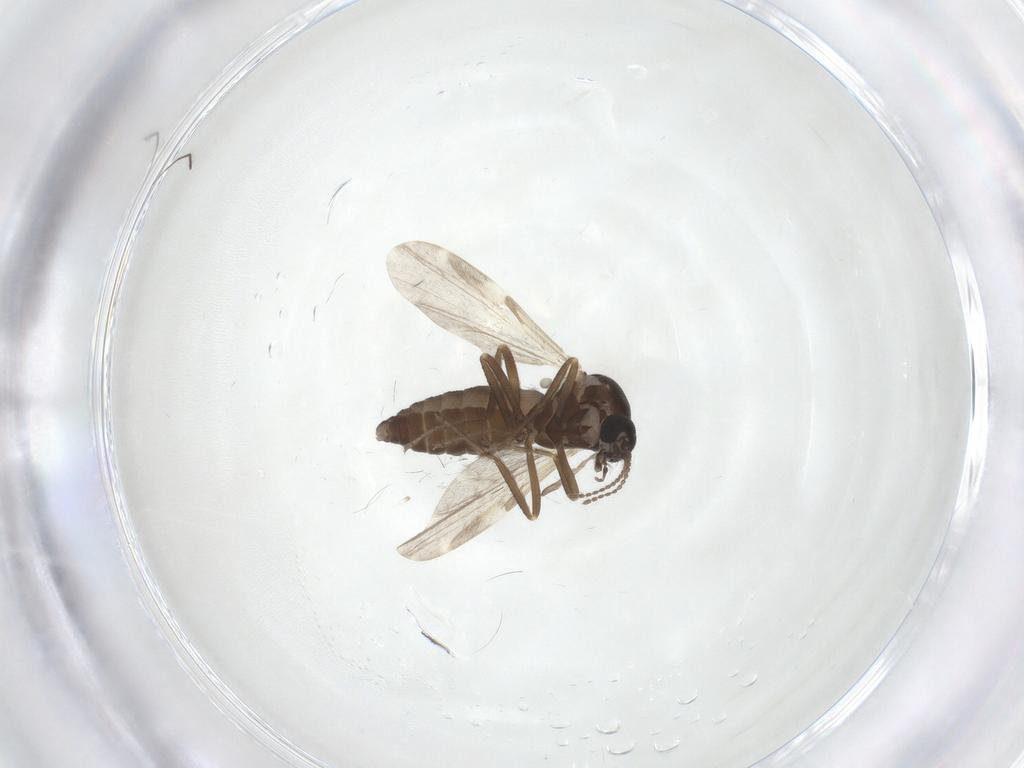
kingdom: Animalia
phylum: Arthropoda
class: Insecta
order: Diptera
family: Ceratopogonidae
